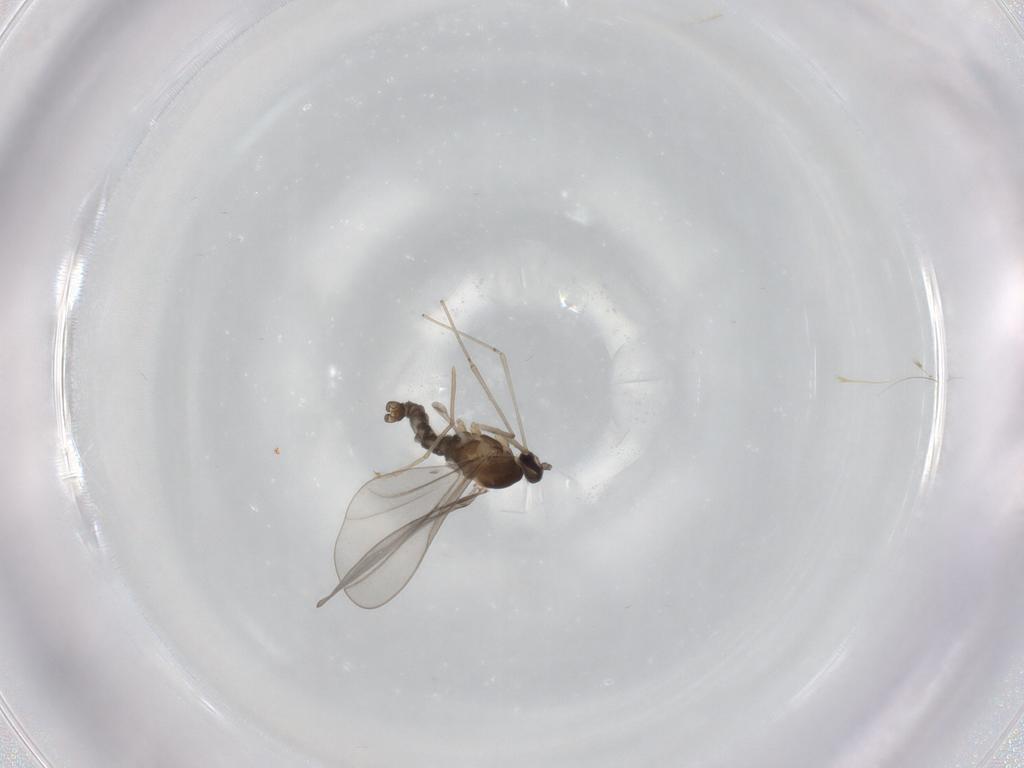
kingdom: Animalia
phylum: Arthropoda
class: Insecta
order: Diptera
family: Cecidomyiidae
